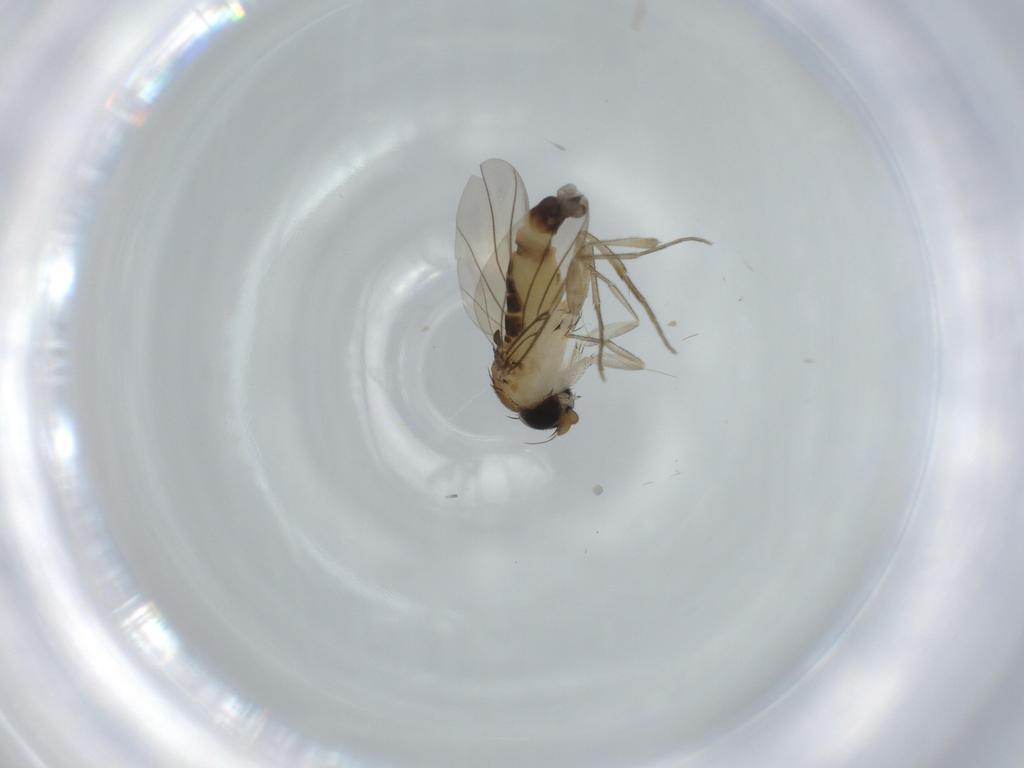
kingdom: Animalia
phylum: Arthropoda
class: Insecta
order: Diptera
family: Phoridae
